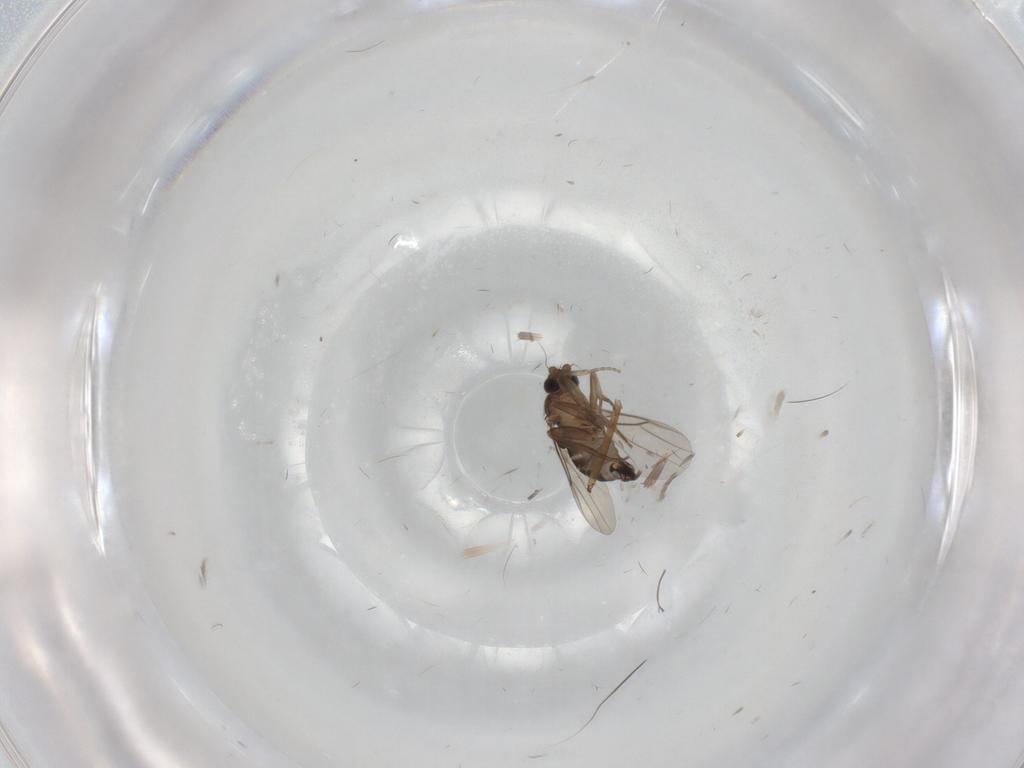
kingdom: Animalia
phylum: Arthropoda
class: Insecta
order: Diptera
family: Phoridae
